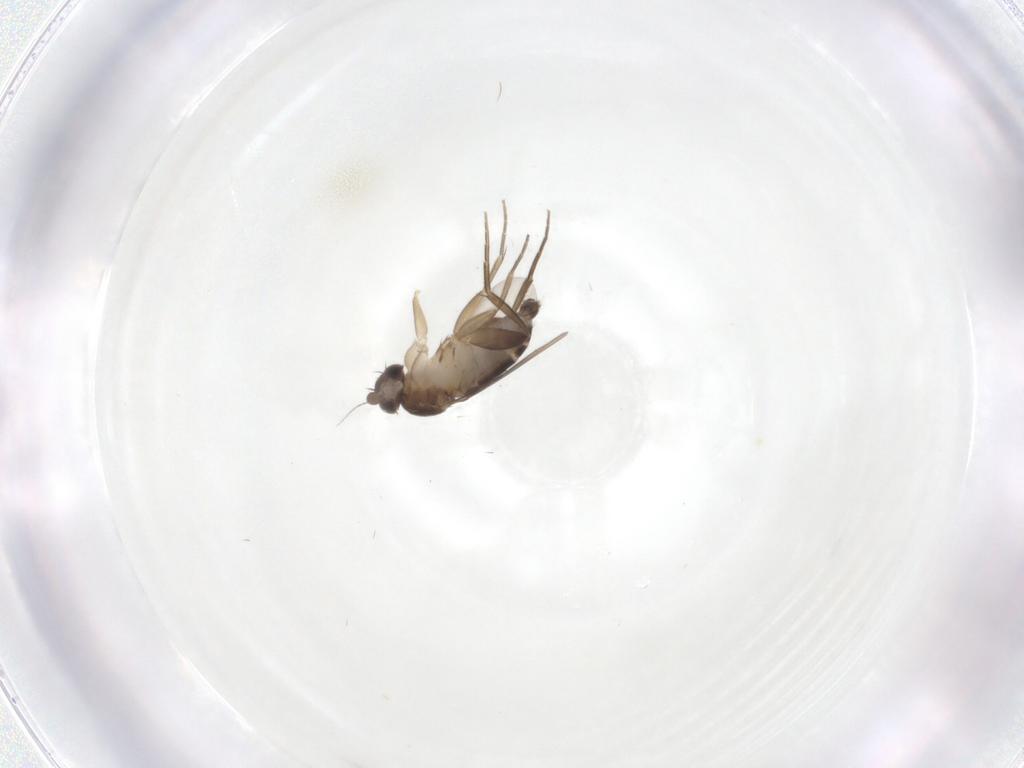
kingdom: Animalia
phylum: Arthropoda
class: Insecta
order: Diptera
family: Phoridae
